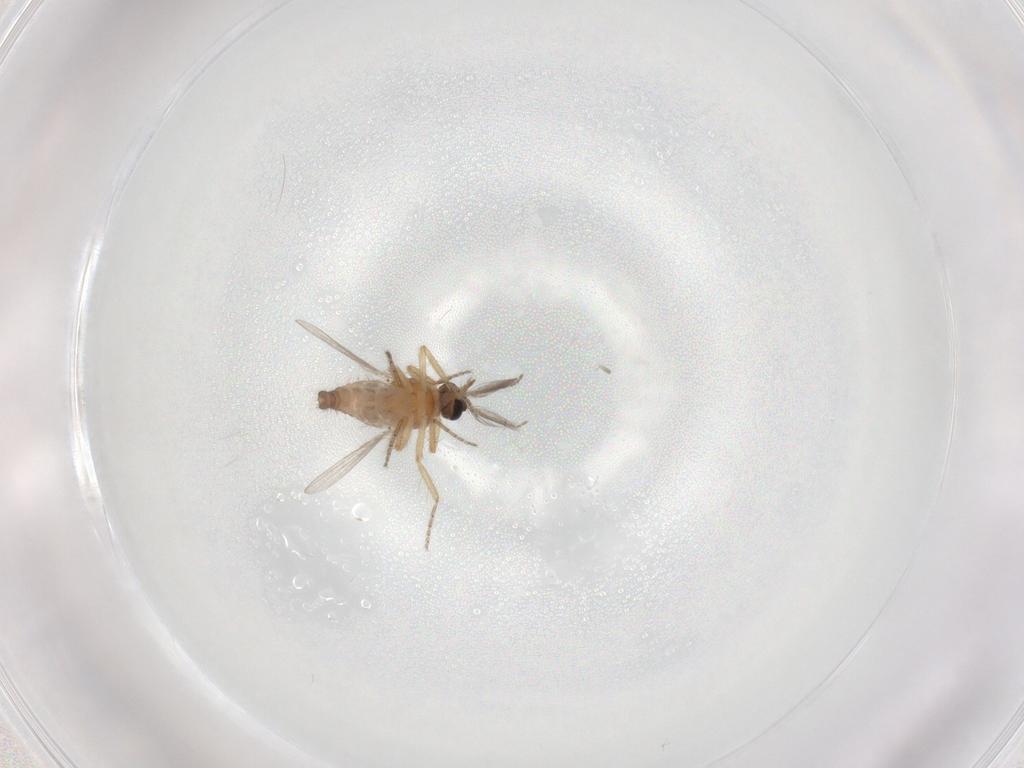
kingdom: Animalia
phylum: Arthropoda
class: Insecta
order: Diptera
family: Ceratopogonidae
